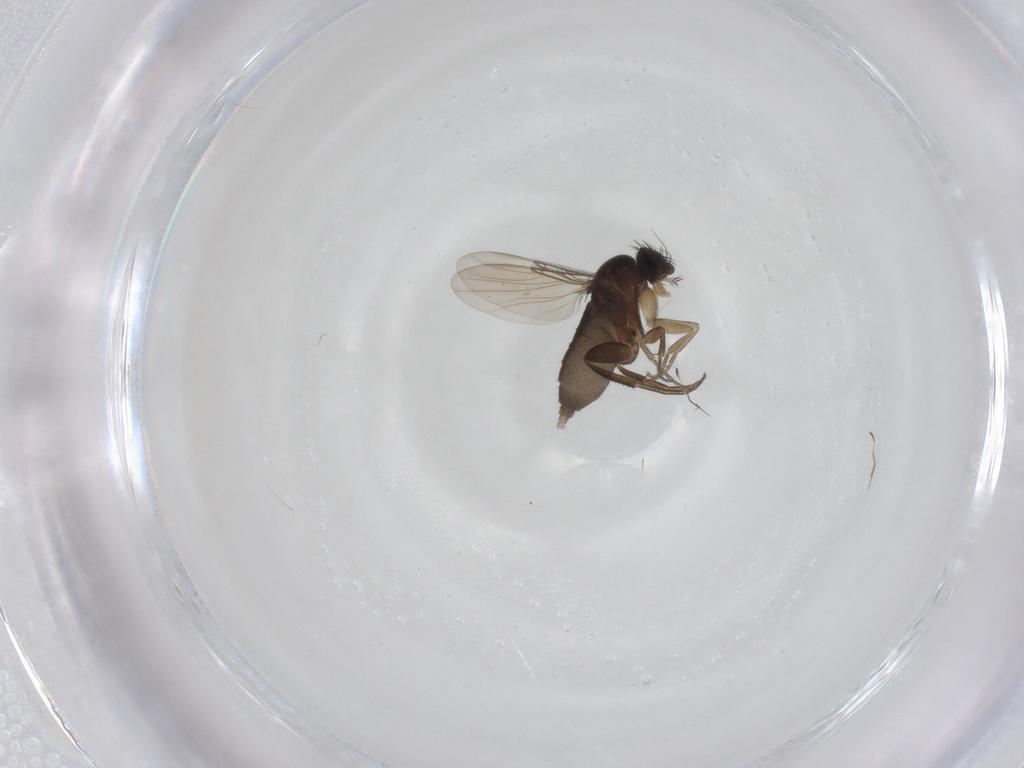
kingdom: Animalia
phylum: Arthropoda
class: Insecta
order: Diptera
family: Phoridae
